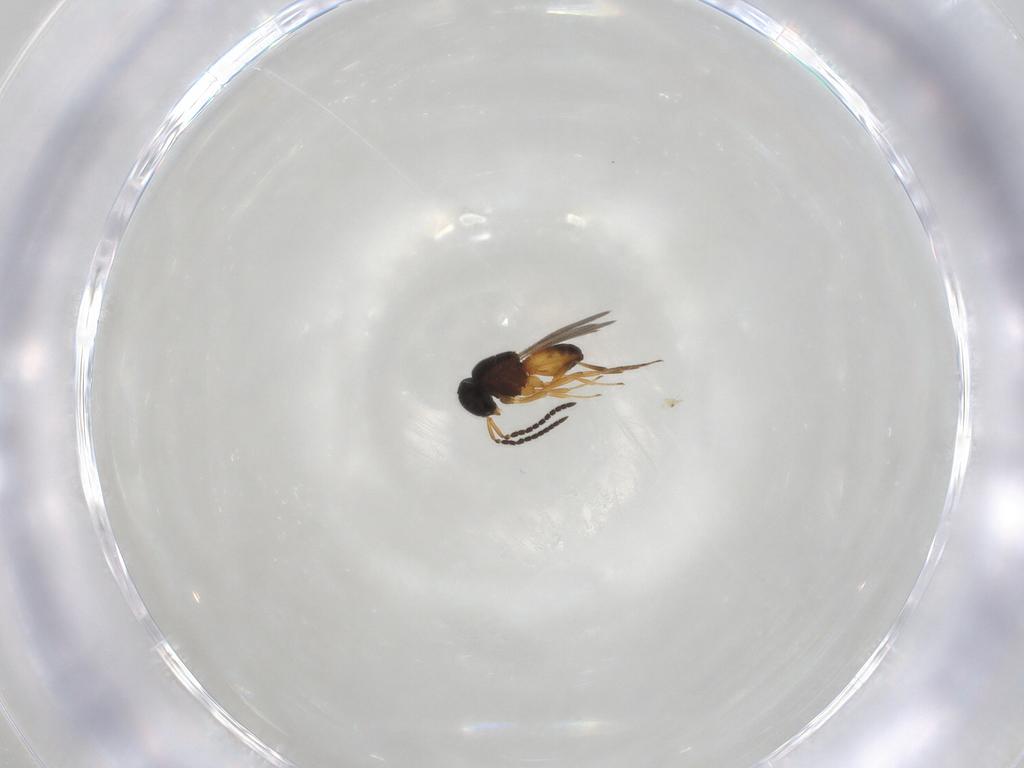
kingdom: Animalia
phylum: Arthropoda
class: Insecta
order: Hymenoptera
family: Scelionidae
